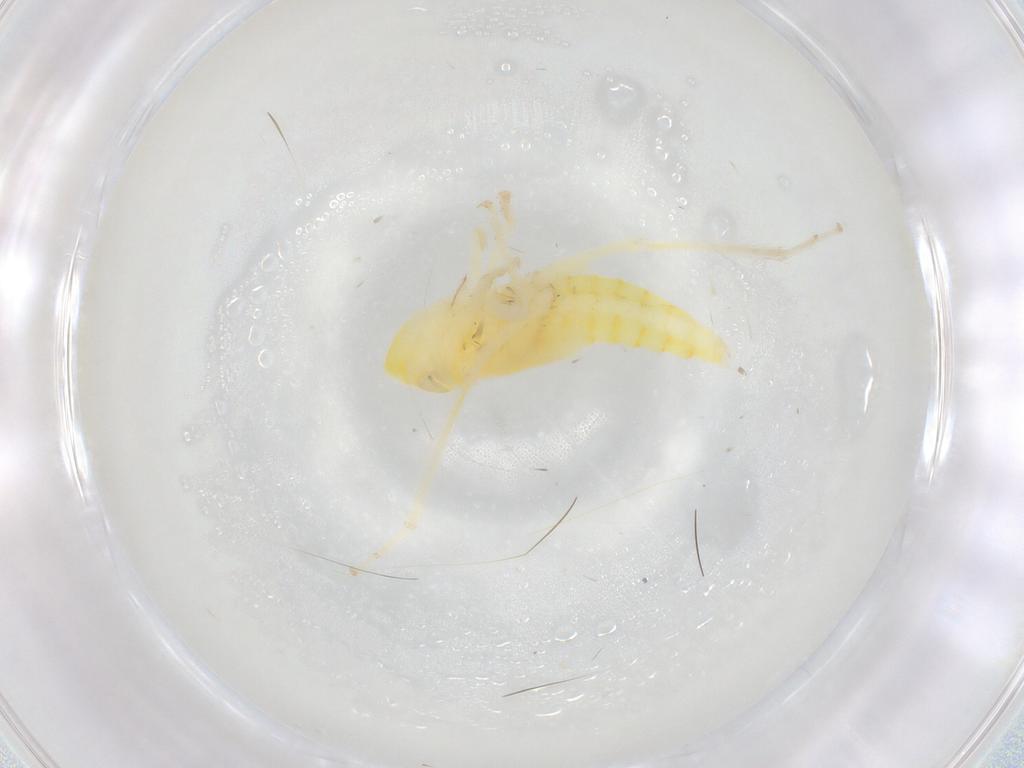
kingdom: Animalia
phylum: Arthropoda
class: Insecta
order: Hemiptera
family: Cicadellidae
